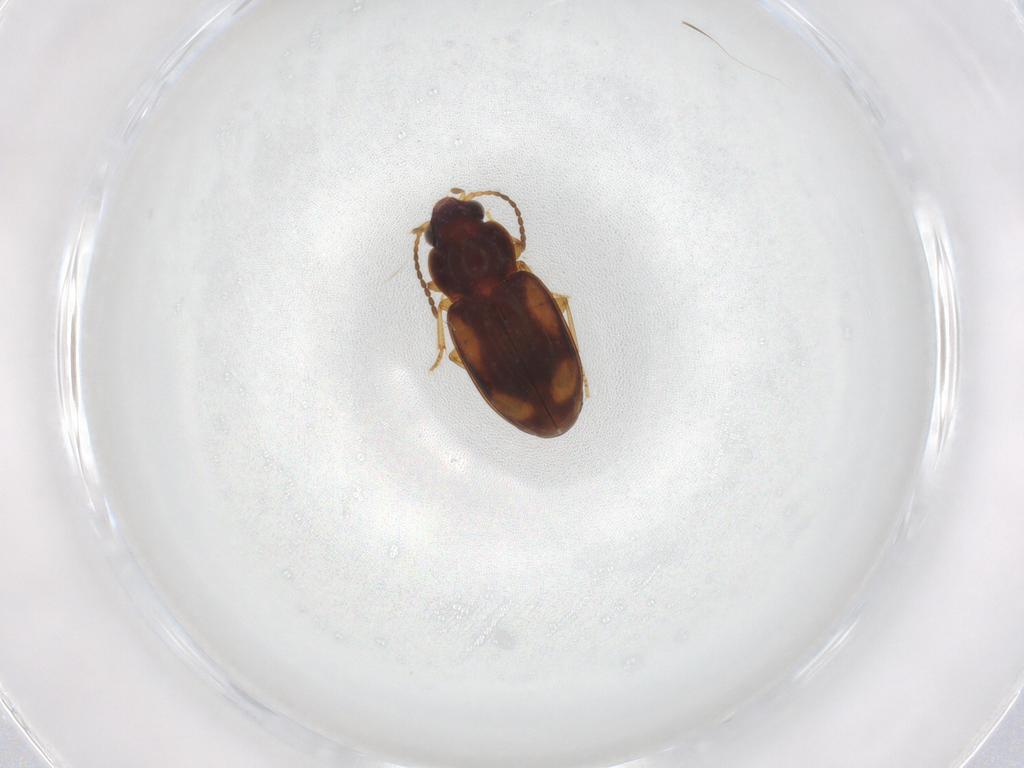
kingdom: Animalia
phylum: Arthropoda
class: Insecta
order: Coleoptera
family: Carabidae
